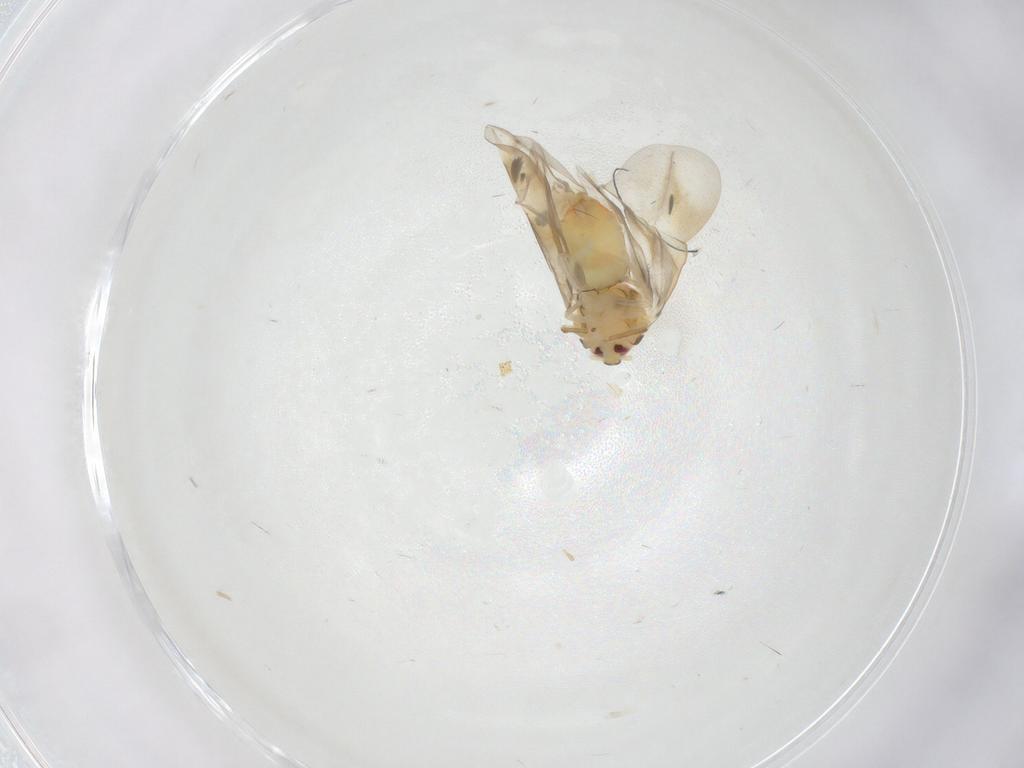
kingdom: Animalia
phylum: Arthropoda
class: Insecta
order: Hemiptera
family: Aleyrodidae
